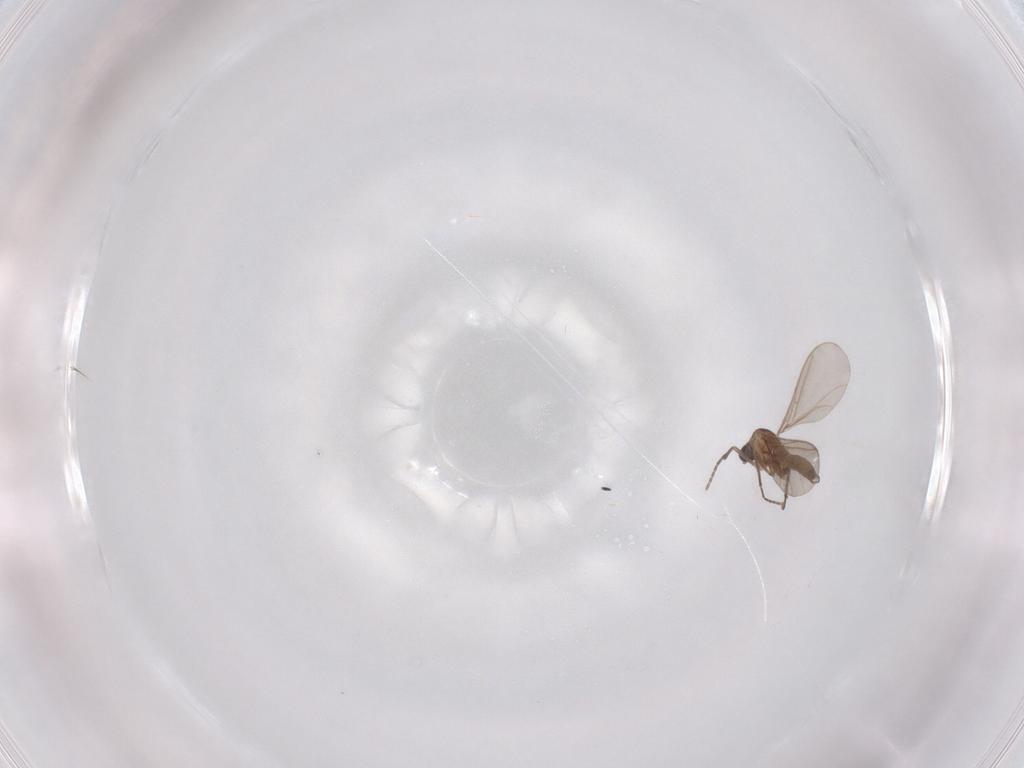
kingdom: Animalia
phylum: Arthropoda
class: Insecta
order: Diptera
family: Sciaridae
